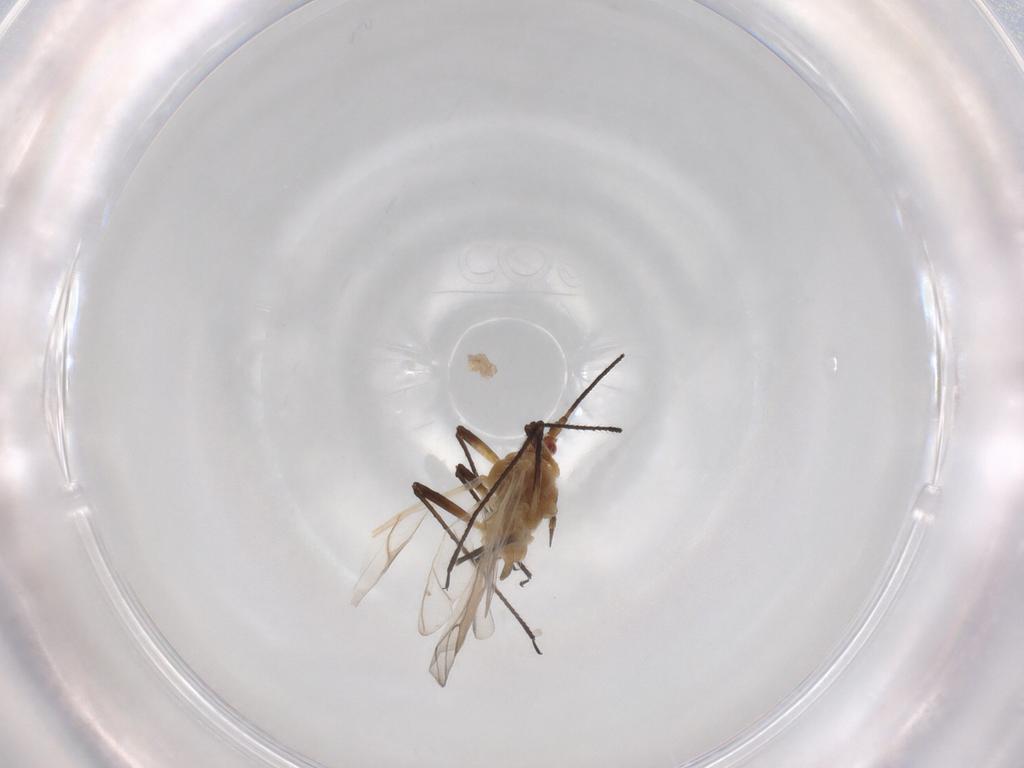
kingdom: Animalia
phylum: Arthropoda
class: Insecta
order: Hemiptera
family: Aphididae
